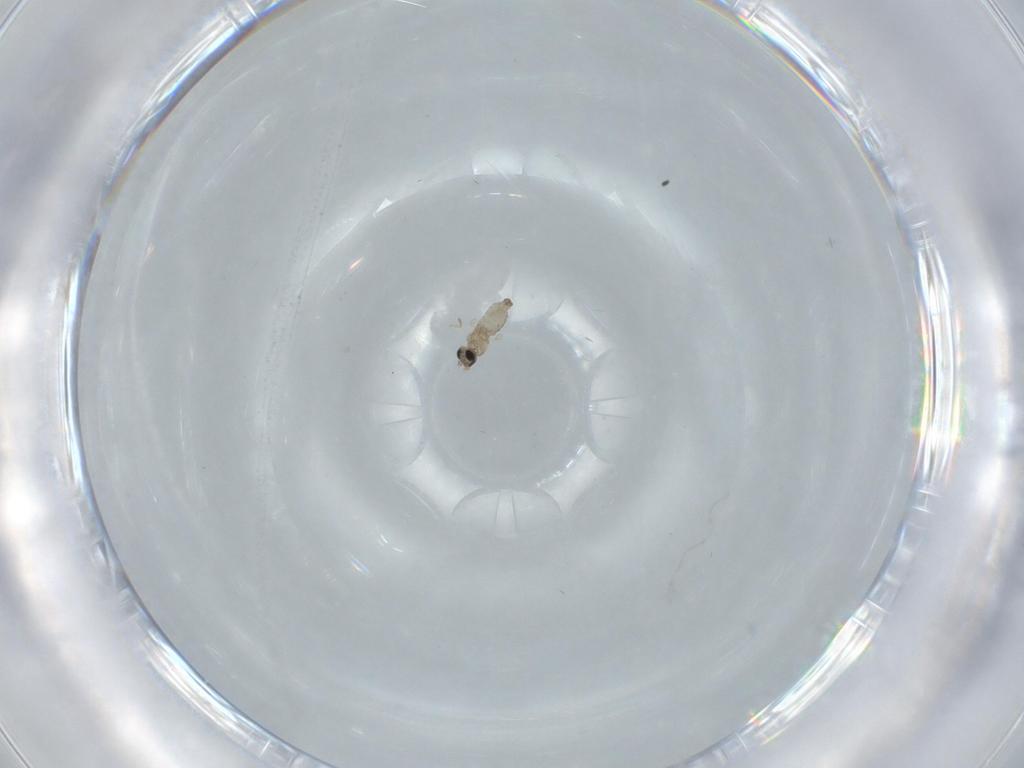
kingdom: Animalia
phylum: Arthropoda
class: Insecta
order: Diptera
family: Cecidomyiidae
